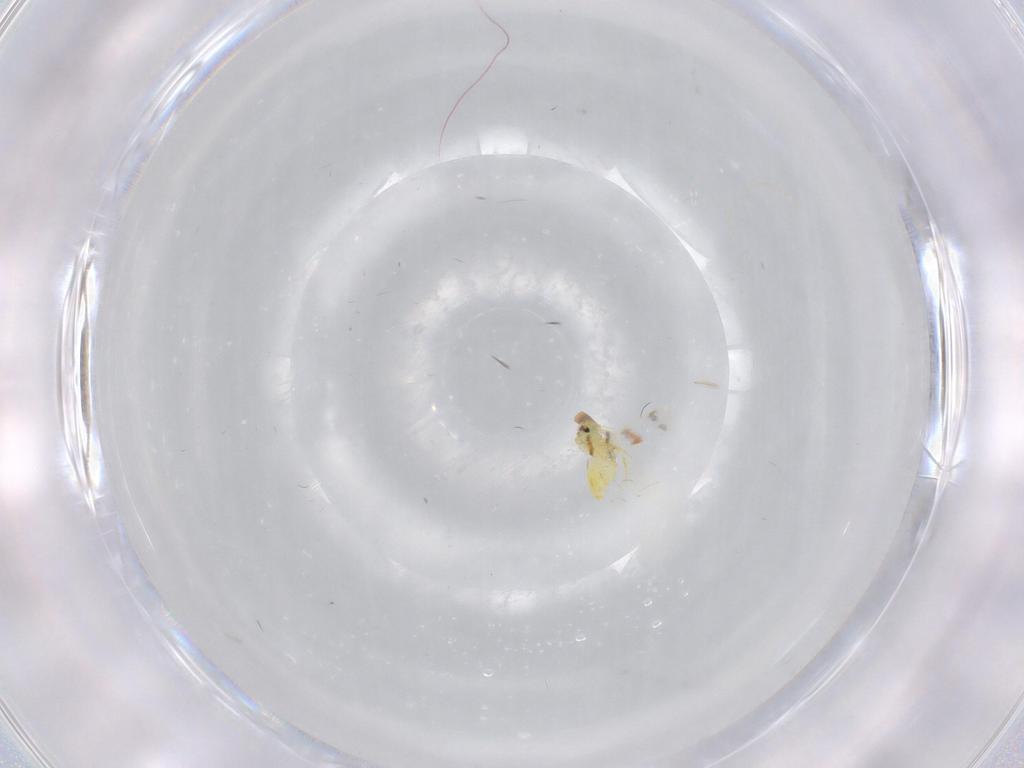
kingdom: Animalia
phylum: Arthropoda
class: Insecta
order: Hemiptera
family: Aleyrodidae
